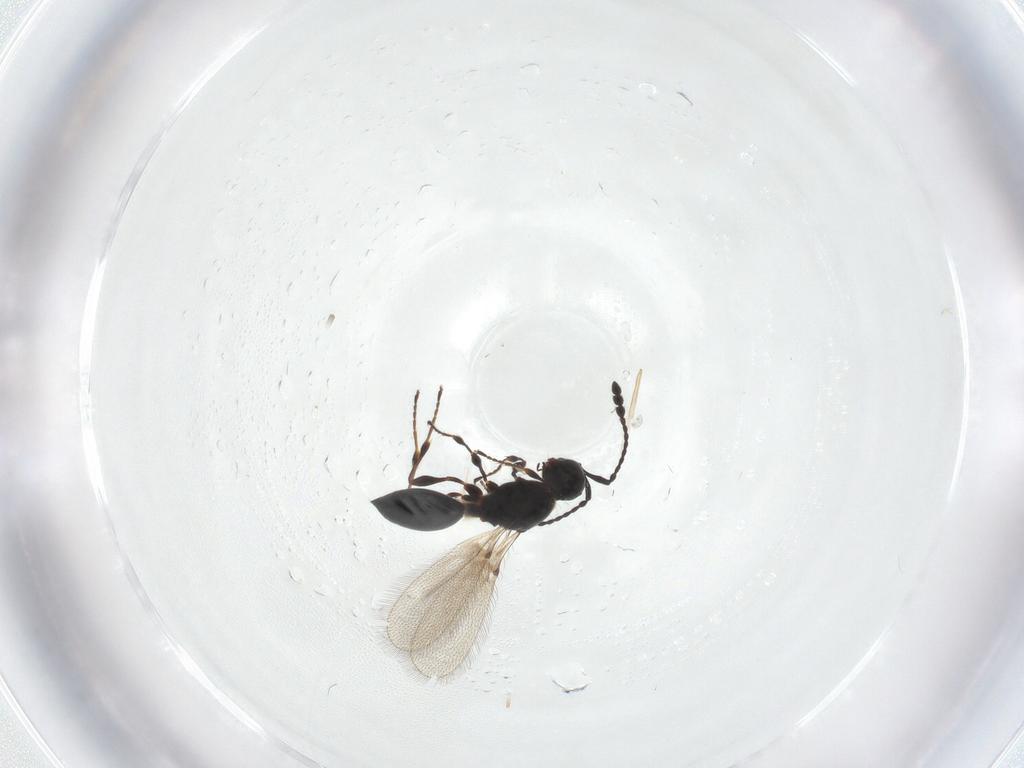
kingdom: Animalia
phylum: Arthropoda
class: Insecta
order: Hymenoptera
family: Diapriidae
